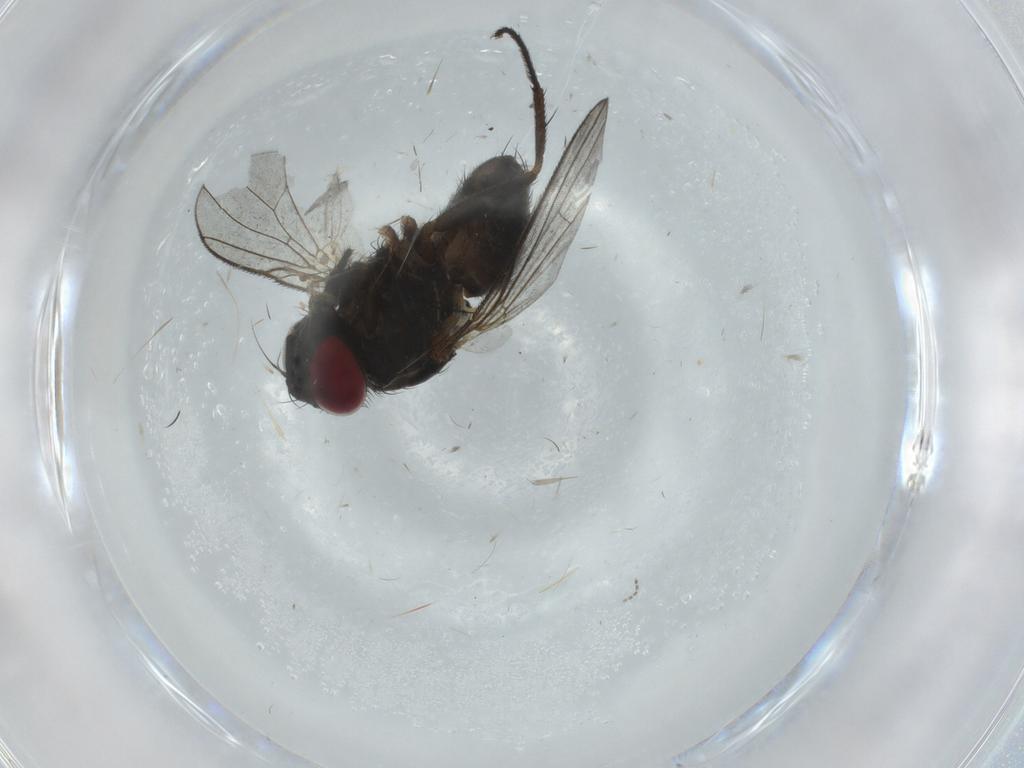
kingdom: Animalia
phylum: Arthropoda
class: Insecta
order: Diptera
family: Muscidae
